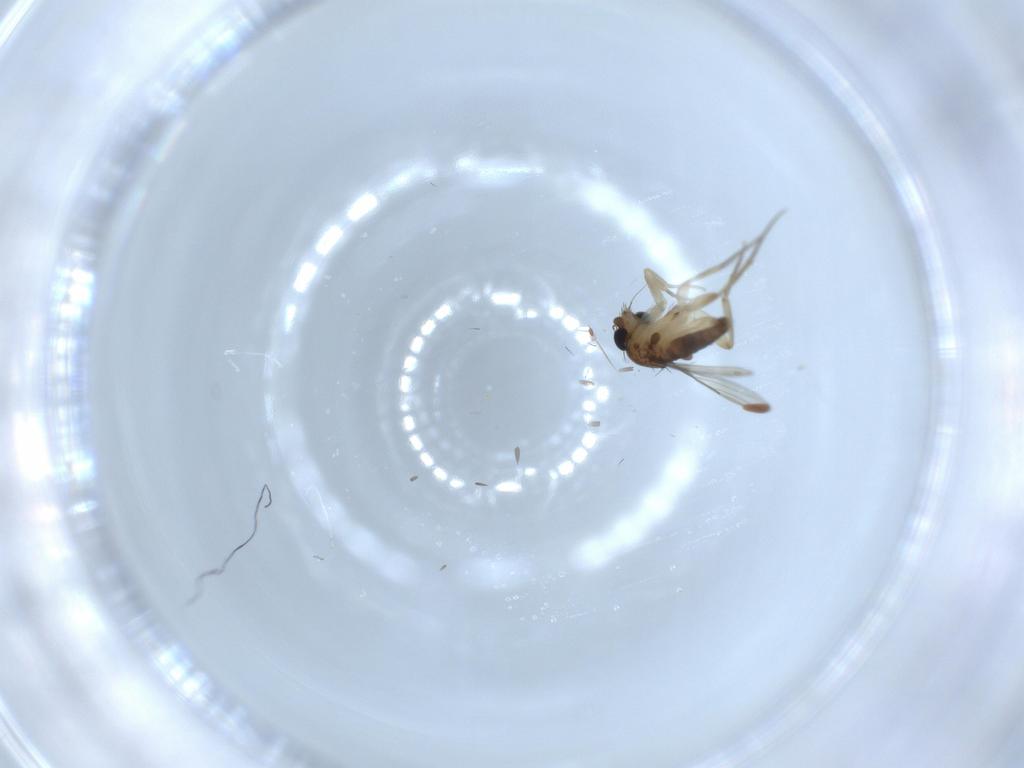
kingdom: Animalia
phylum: Arthropoda
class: Insecta
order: Diptera
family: Phoridae
